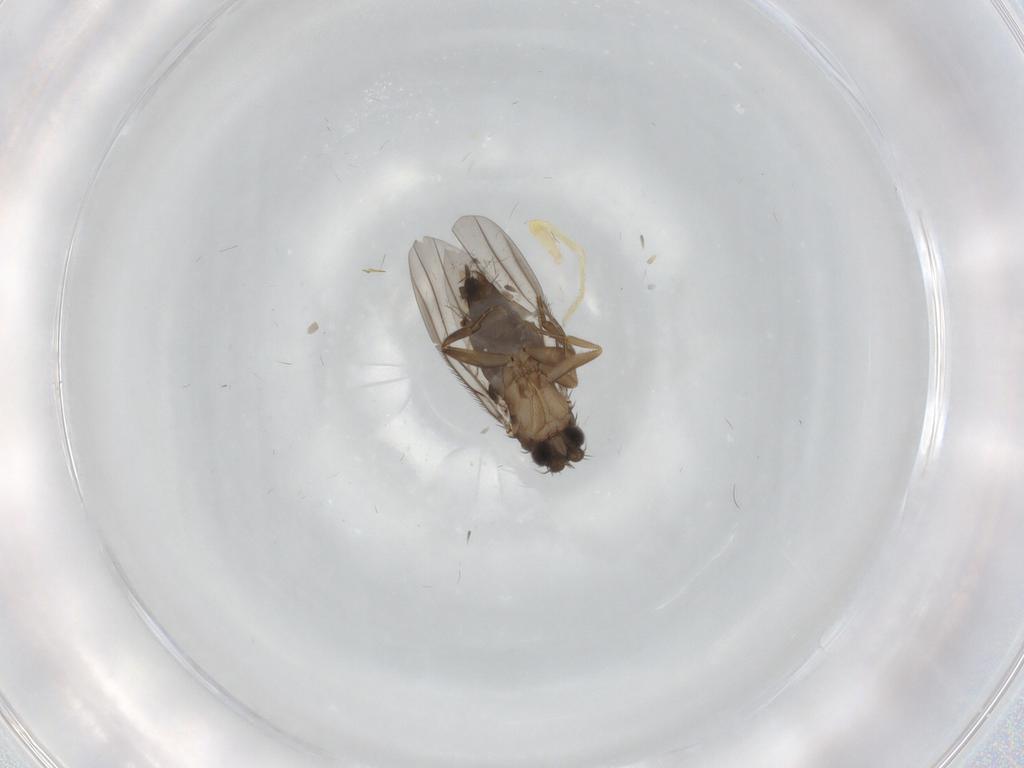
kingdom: Animalia
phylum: Arthropoda
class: Insecta
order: Diptera
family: Phoridae
